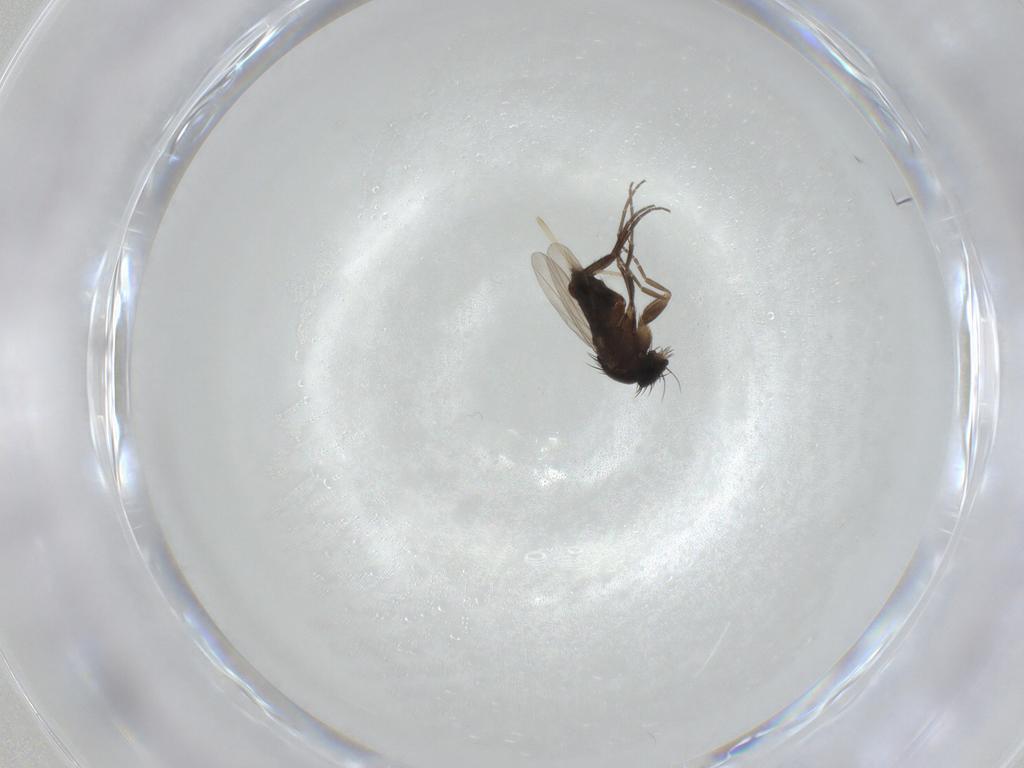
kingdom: Animalia
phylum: Arthropoda
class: Insecta
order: Diptera
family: Phoridae
